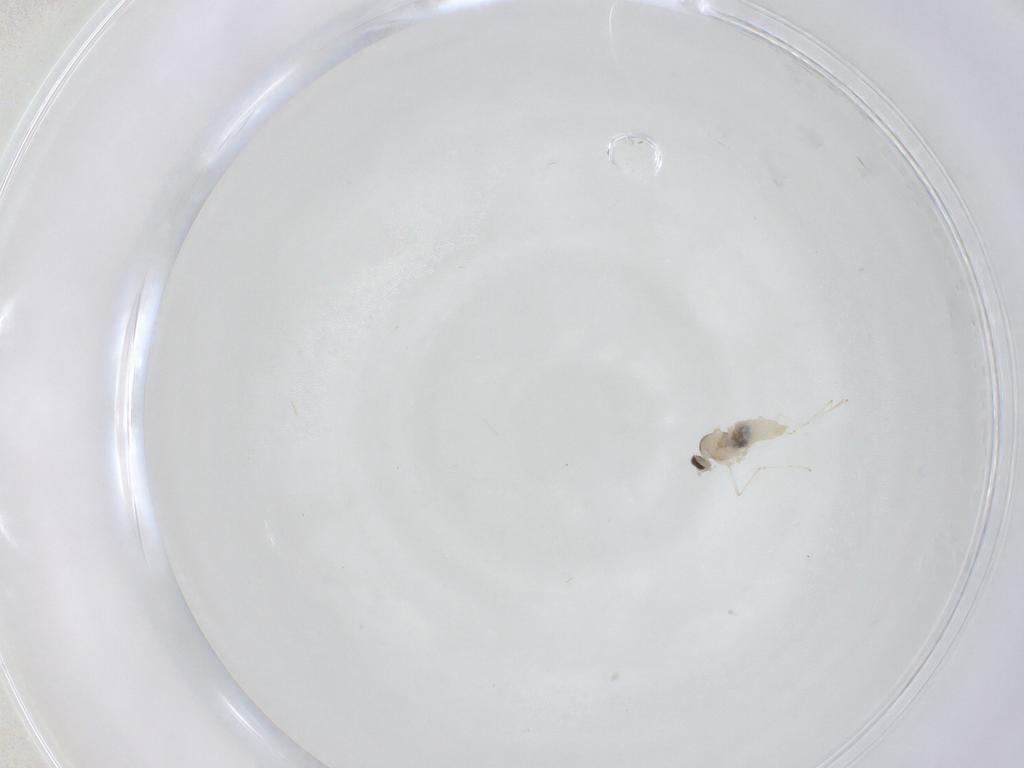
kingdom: Animalia
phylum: Arthropoda
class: Insecta
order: Diptera
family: Cecidomyiidae
